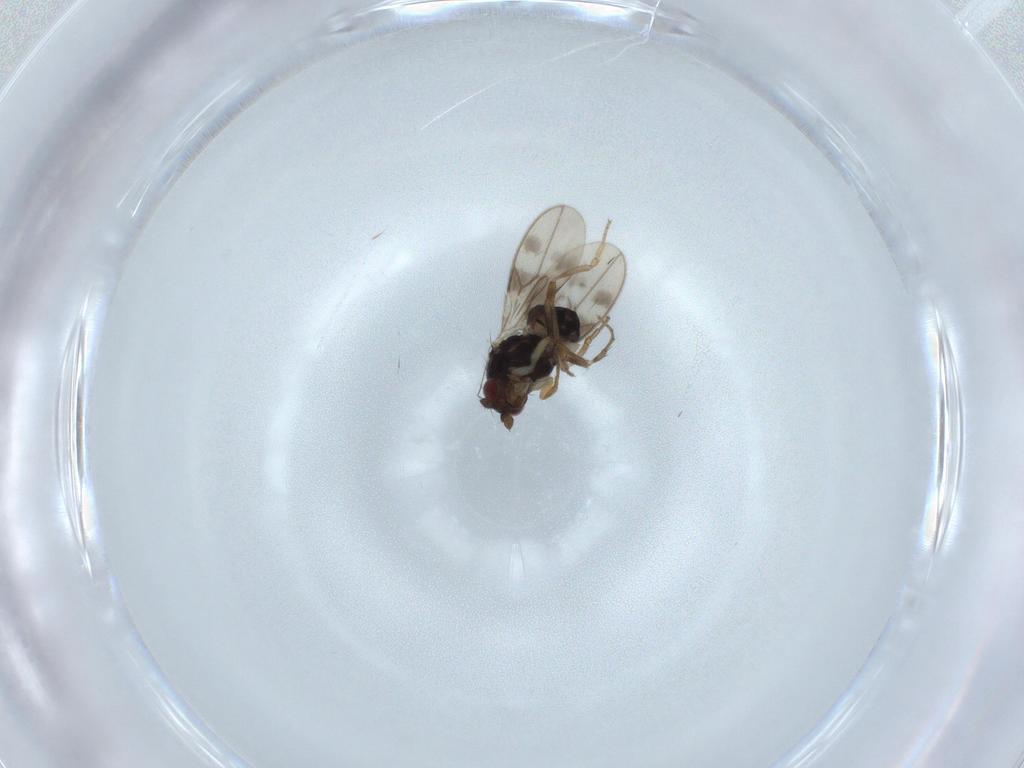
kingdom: Animalia
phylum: Arthropoda
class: Insecta
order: Diptera
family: Sphaeroceridae
